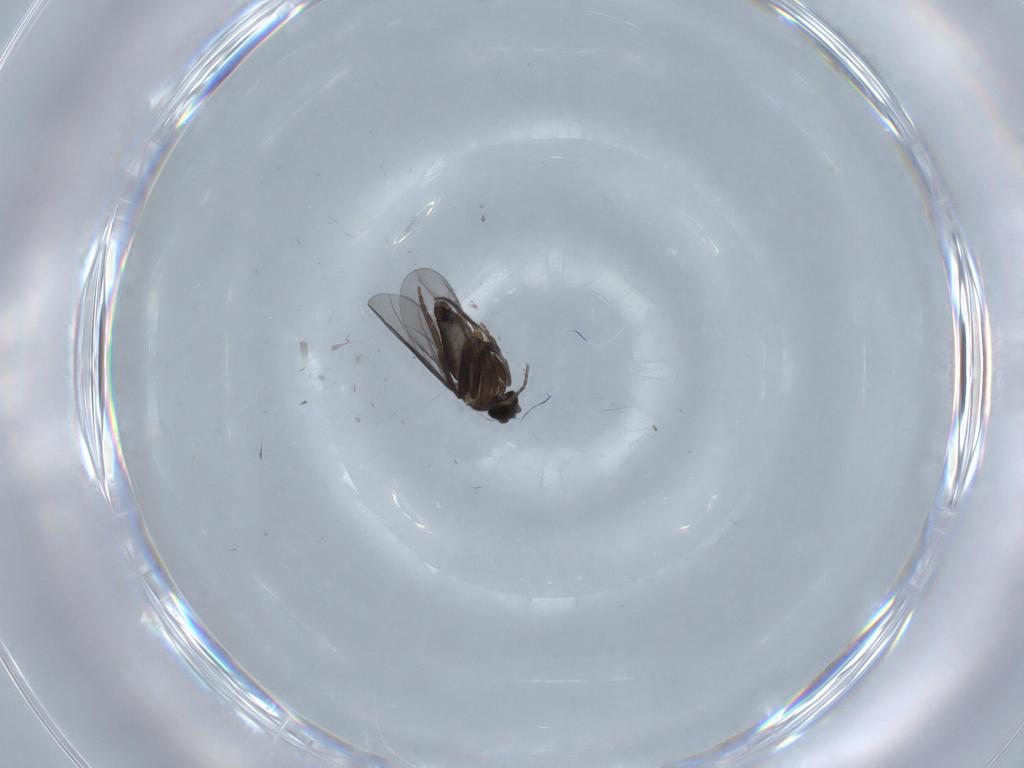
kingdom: Animalia
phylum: Arthropoda
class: Insecta
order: Diptera
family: Phoridae
